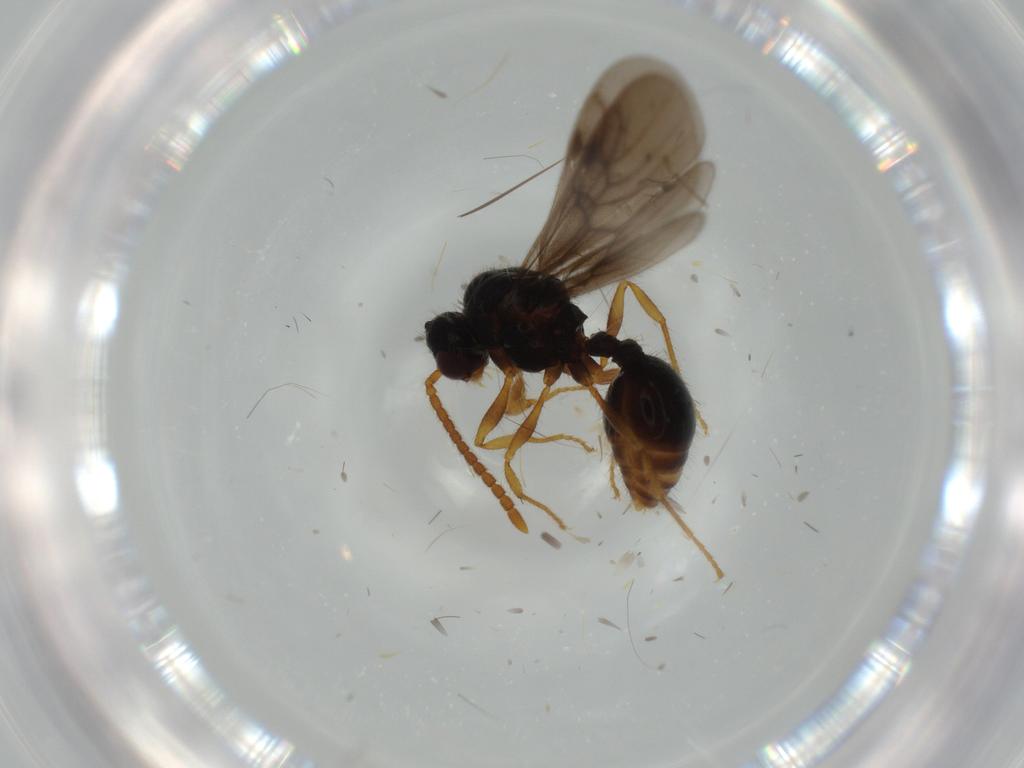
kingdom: Animalia
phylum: Arthropoda
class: Insecta
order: Hymenoptera
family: Formicidae
